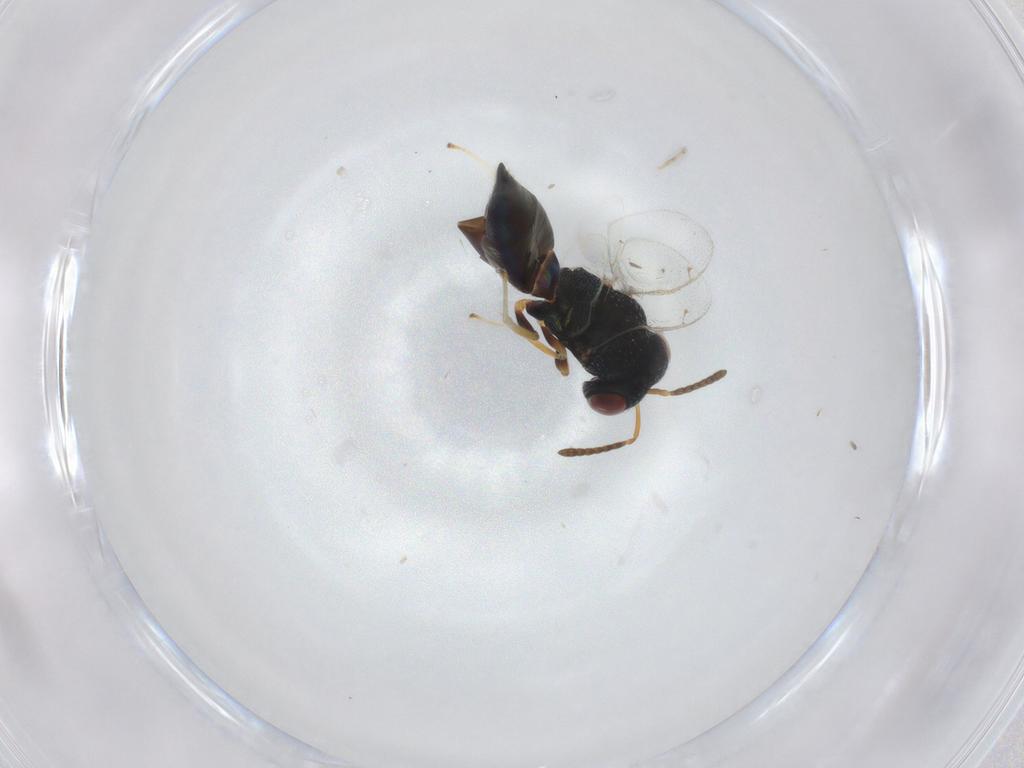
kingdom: Animalia
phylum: Arthropoda
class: Insecta
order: Hymenoptera
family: Pteromalidae
